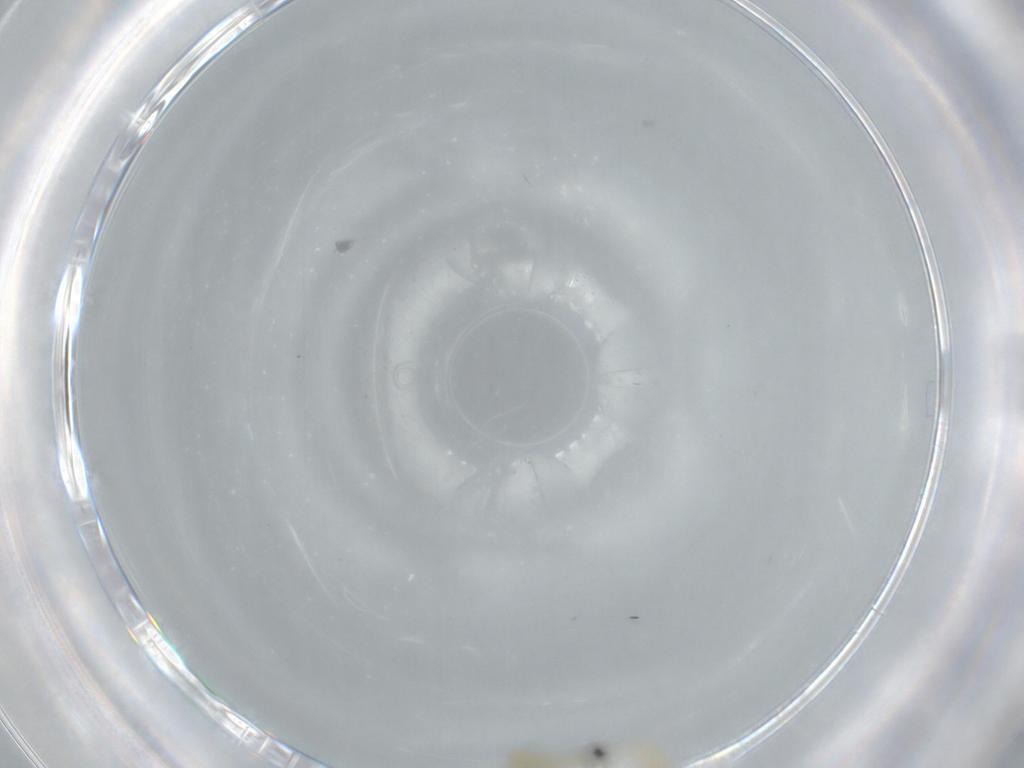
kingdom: Animalia
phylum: Arthropoda
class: Insecta
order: Diptera
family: Chironomidae
